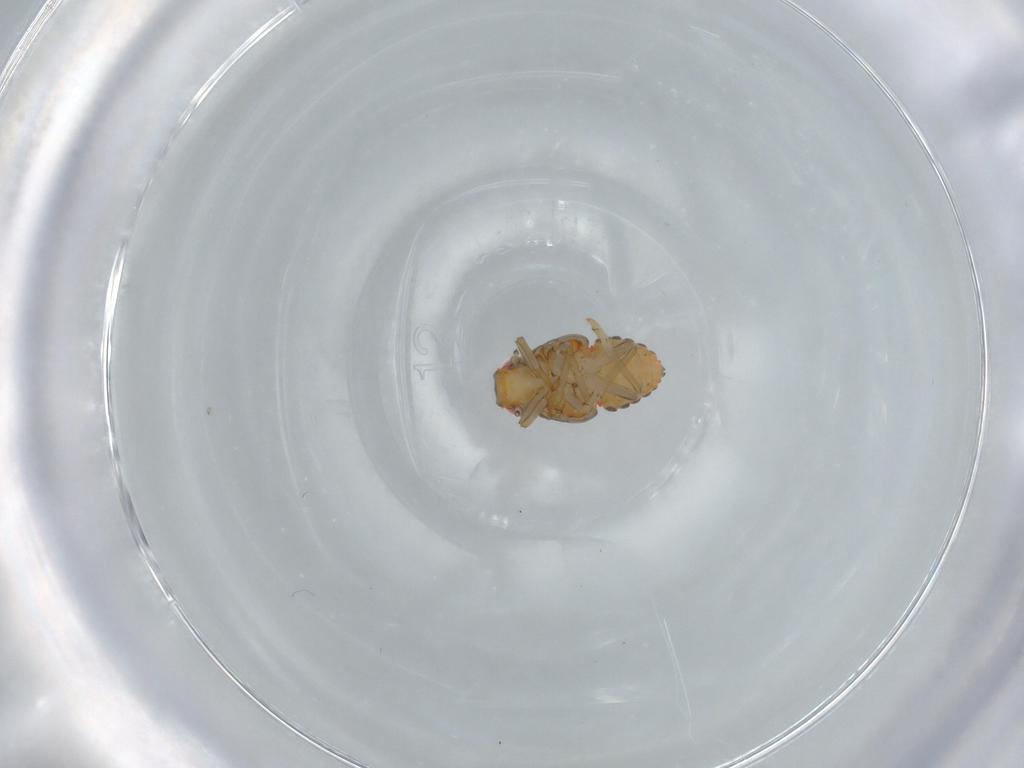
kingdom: Animalia
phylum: Arthropoda
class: Insecta
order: Hemiptera
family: Issidae
